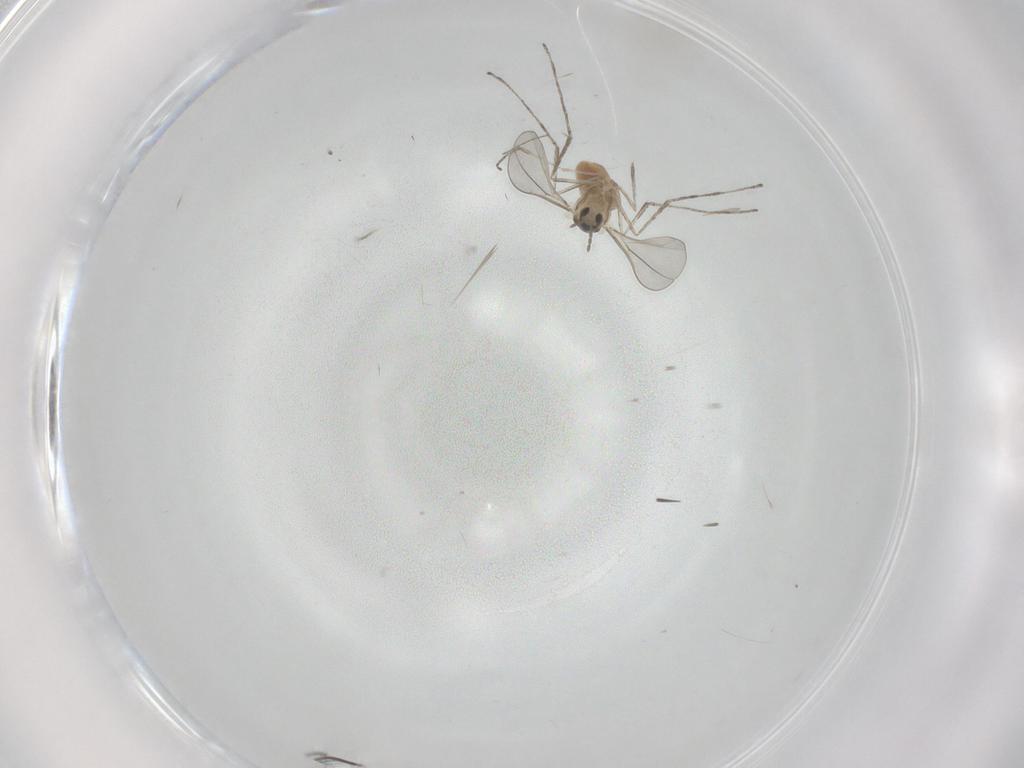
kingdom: Animalia
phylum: Arthropoda
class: Insecta
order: Diptera
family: Cecidomyiidae
